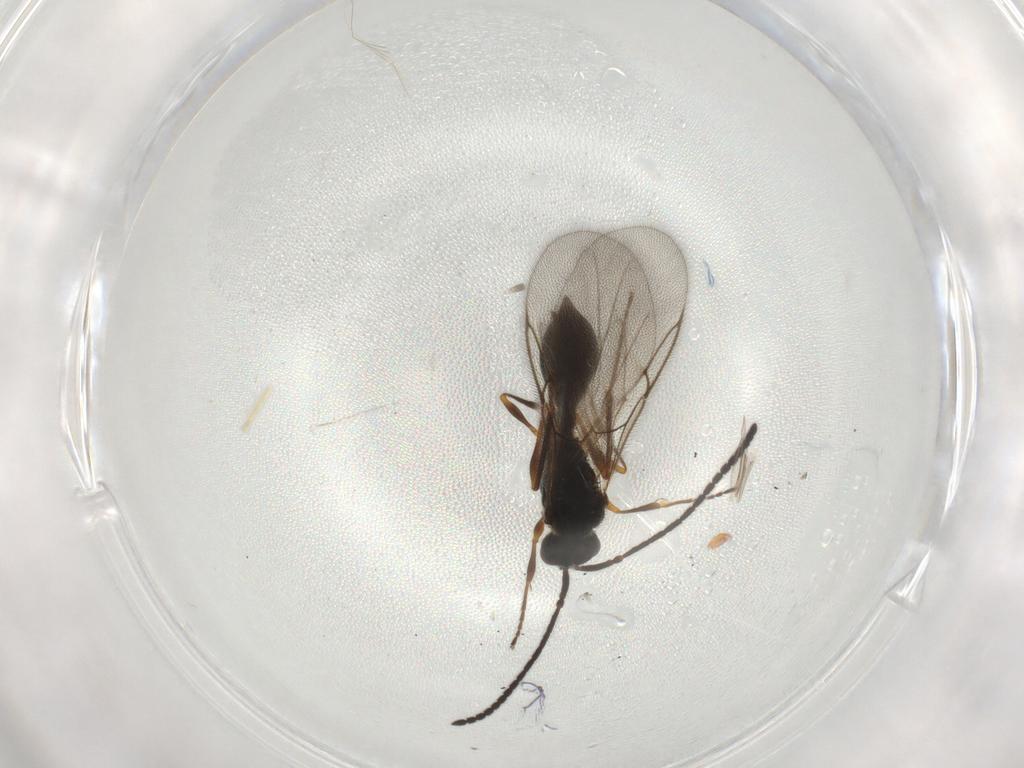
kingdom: Animalia
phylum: Arthropoda
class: Insecta
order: Hymenoptera
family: Diapriidae
